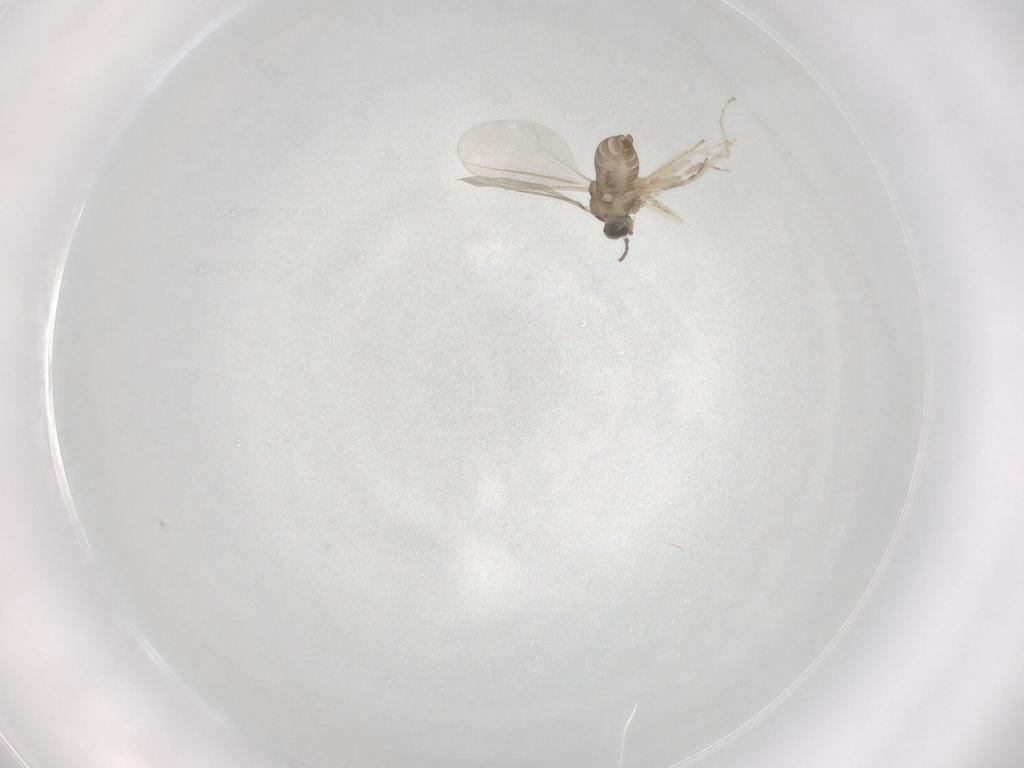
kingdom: Animalia
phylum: Arthropoda
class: Insecta
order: Diptera
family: Cecidomyiidae
